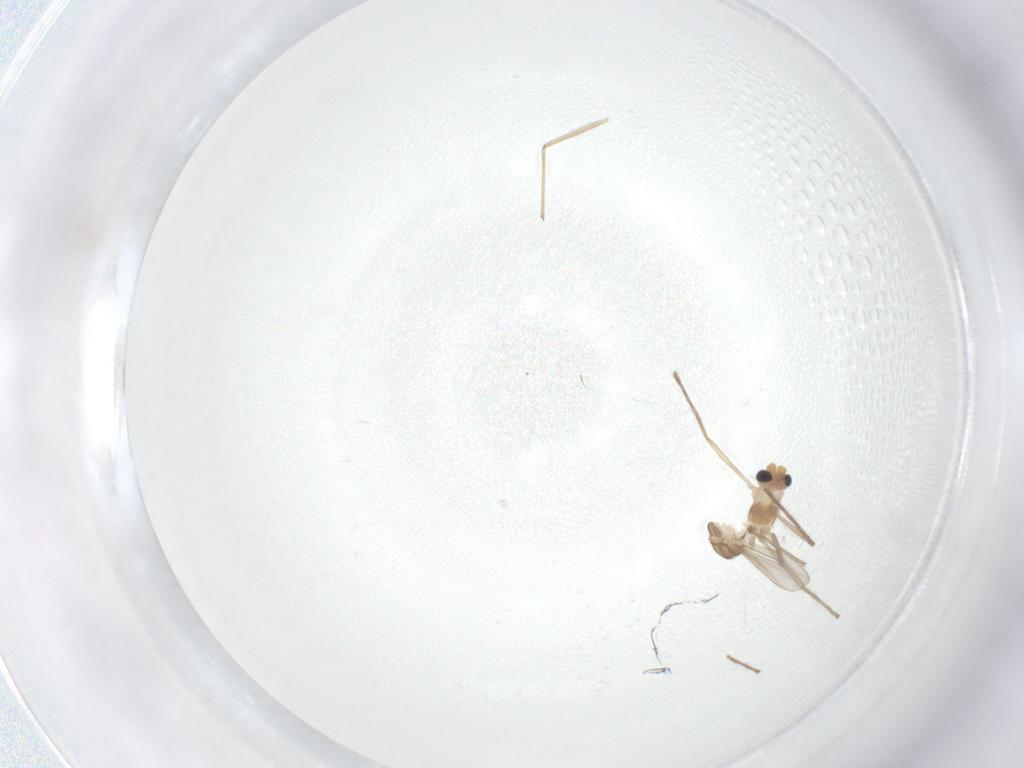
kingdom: Animalia
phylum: Arthropoda
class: Insecta
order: Diptera
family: Chironomidae
